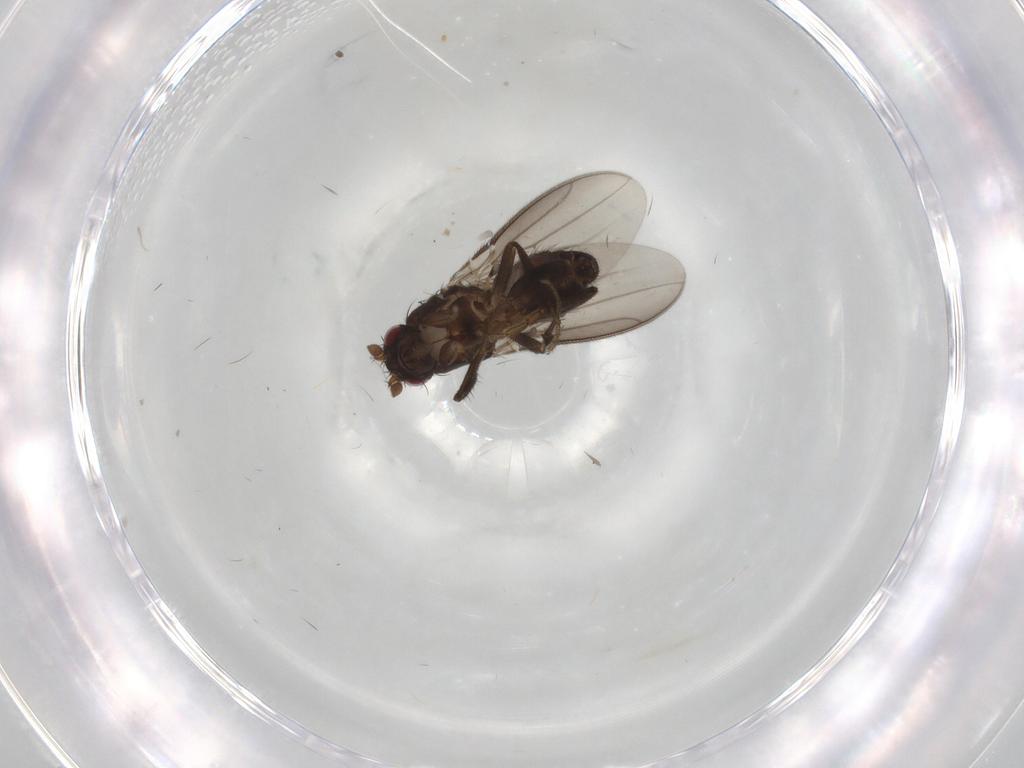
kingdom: Animalia
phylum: Arthropoda
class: Insecta
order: Diptera
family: Sphaeroceridae
